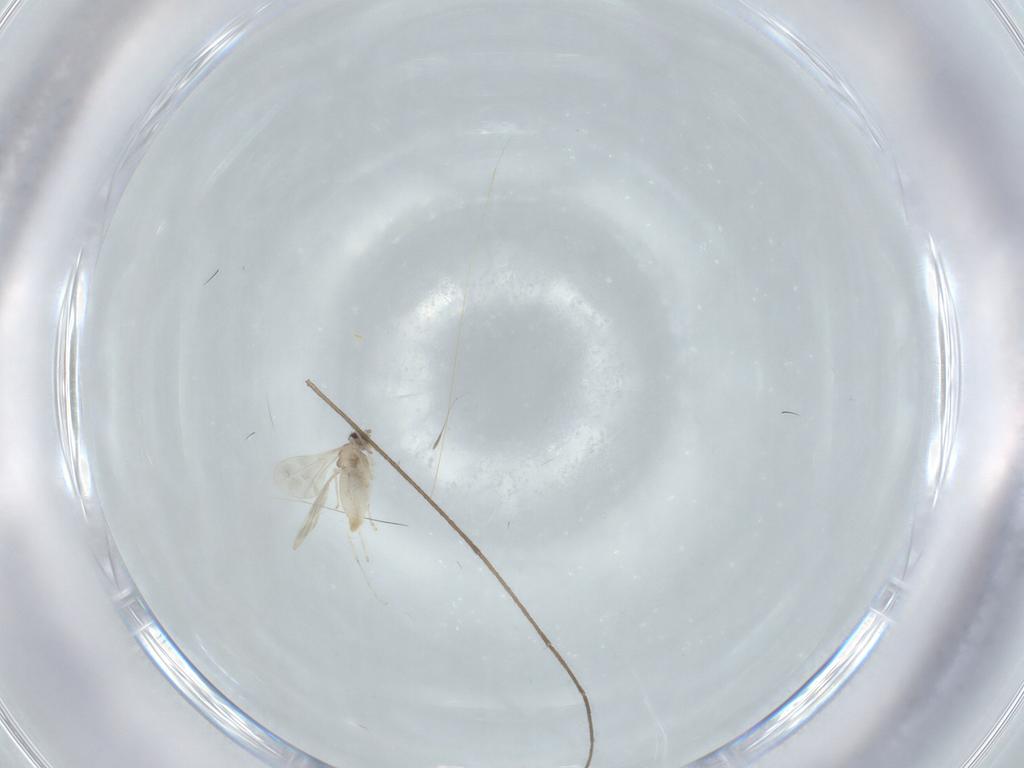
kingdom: Animalia
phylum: Arthropoda
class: Insecta
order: Diptera
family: Cecidomyiidae
